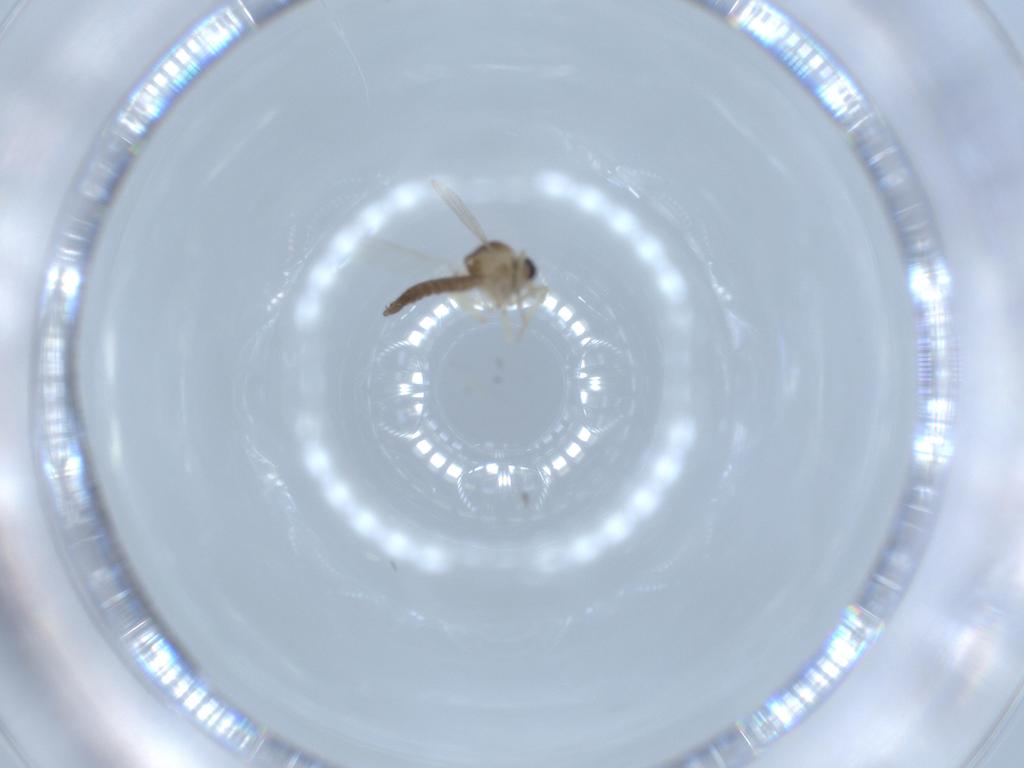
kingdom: Animalia
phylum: Arthropoda
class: Insecta
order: Diptera
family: Ceratopogonidae
